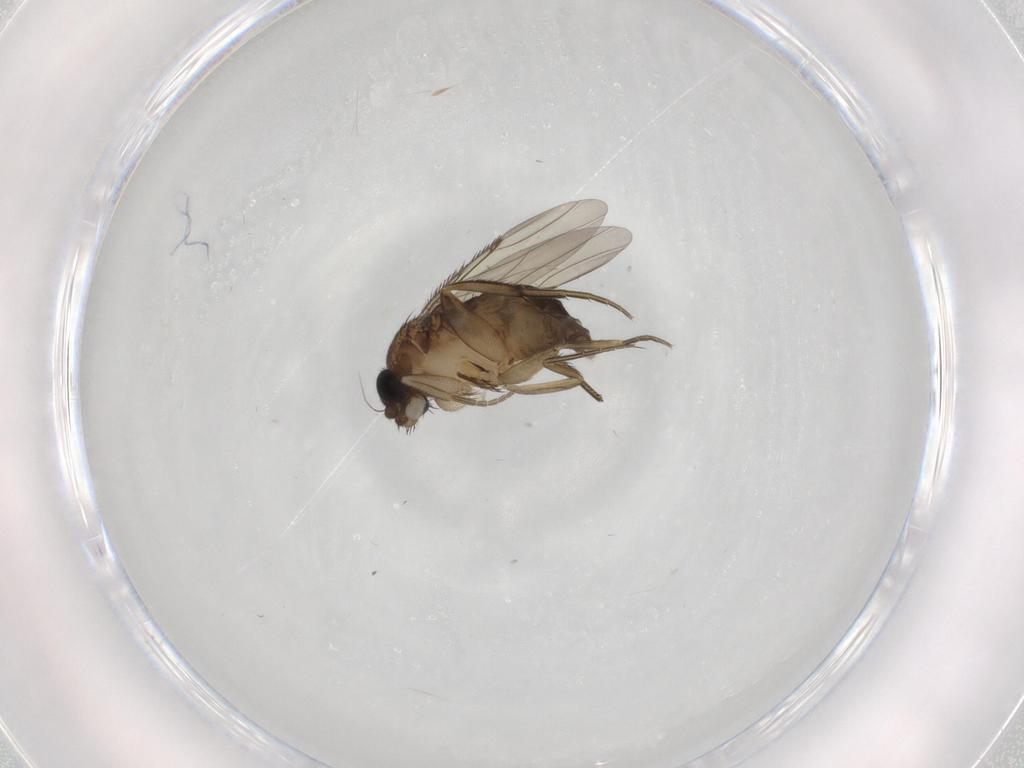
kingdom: Animalia
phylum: Arthropoda
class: Insecta
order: Diptera
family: Phoridae
